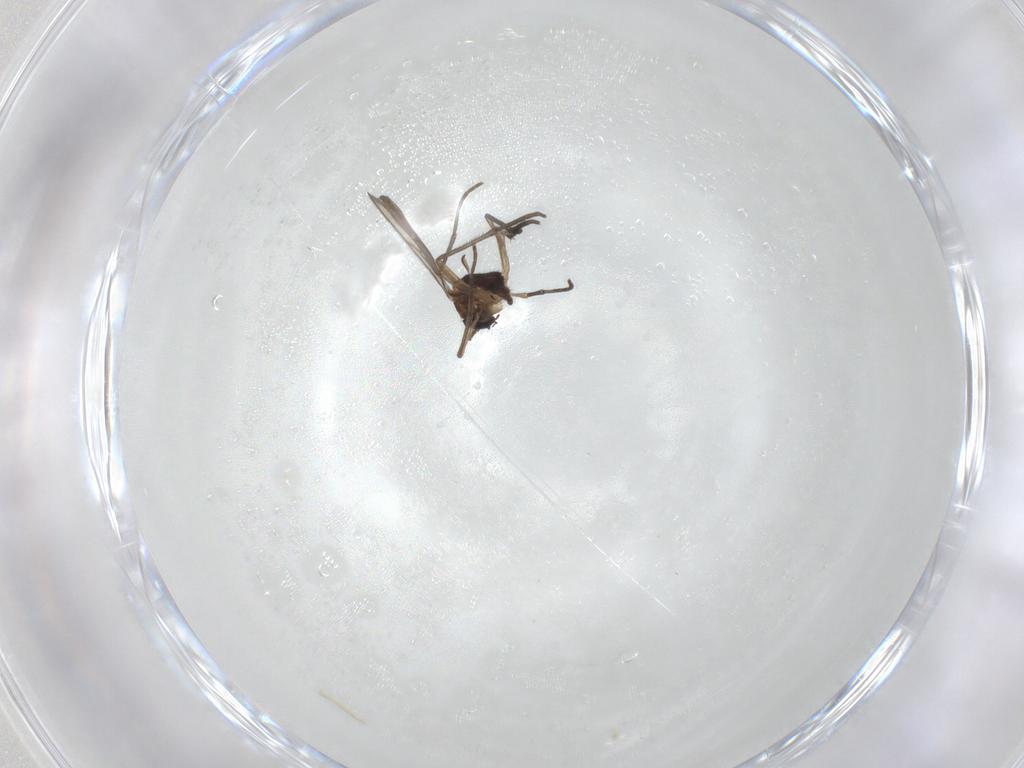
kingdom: Animalia
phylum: Arthropoda
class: Insecta
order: Diptera
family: Sciaridae
